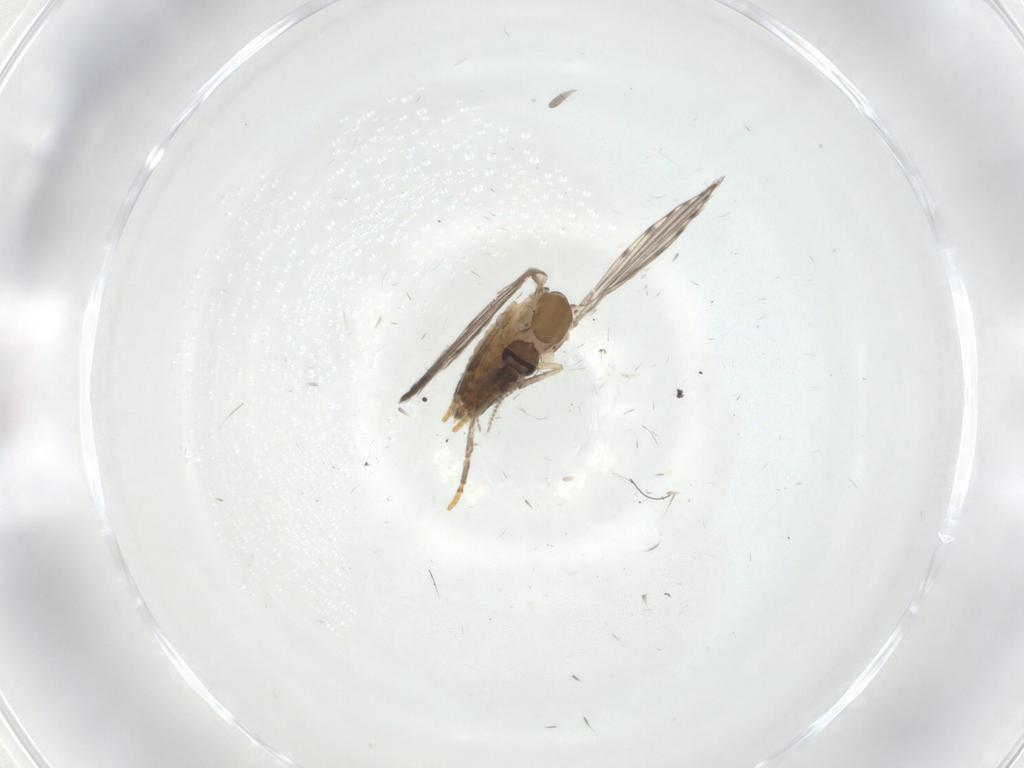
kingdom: Animalia
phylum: Arthropoda
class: Insecta
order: Diptera
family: Psychodidae
